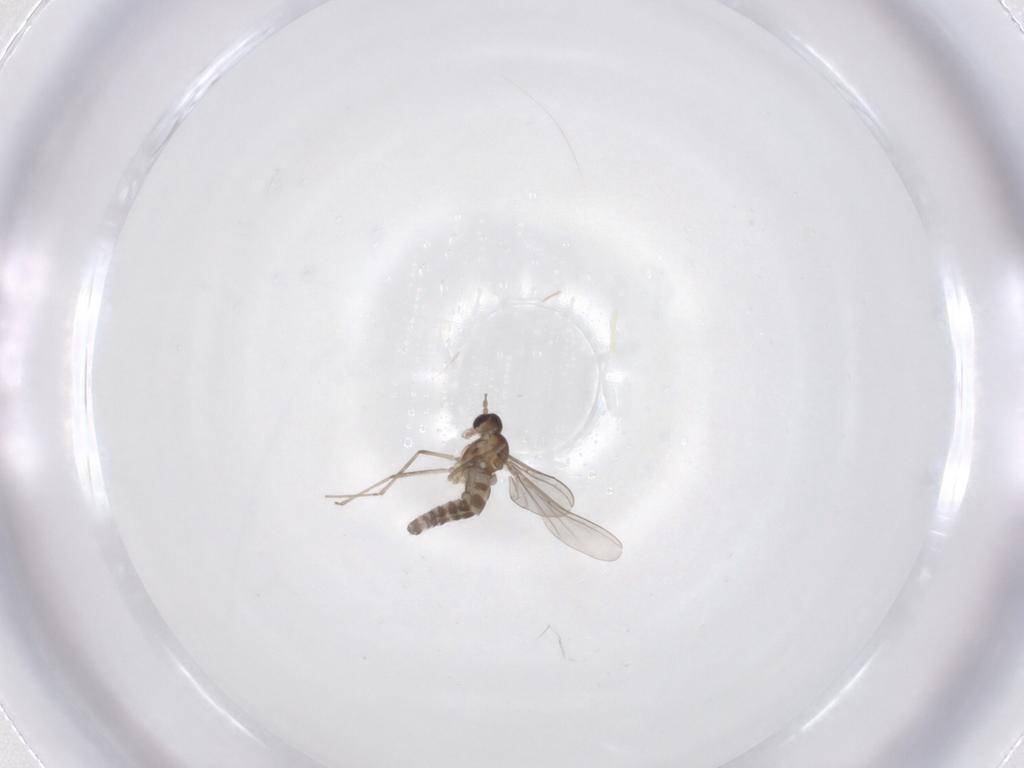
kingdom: Animalia
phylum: Arthropoda
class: Insecta
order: Diptera
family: Cecidomyiidae
